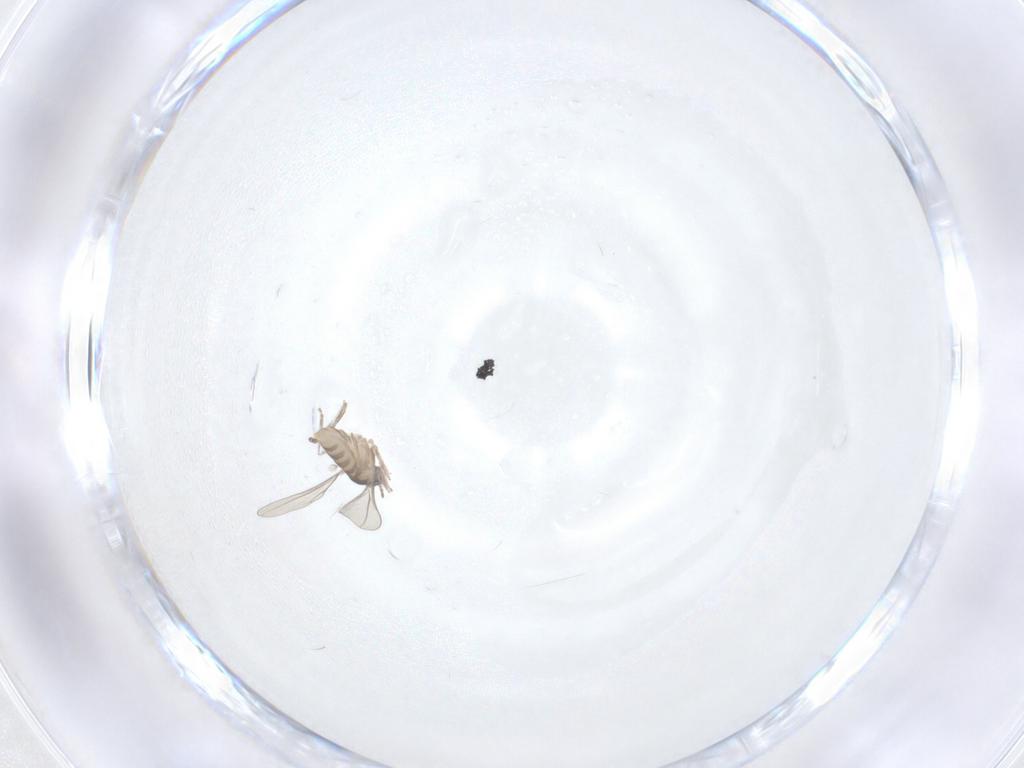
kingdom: Animalia
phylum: Arthropoda
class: Insecta
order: Diptera
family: Cecidomyiidae
